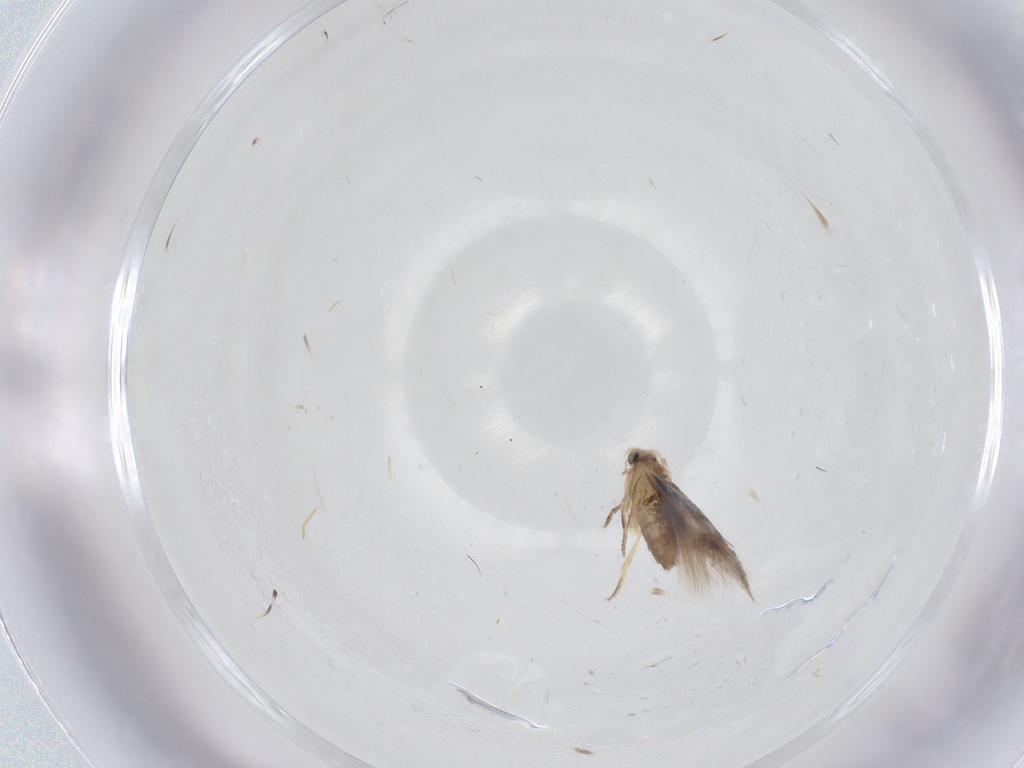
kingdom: Animalia
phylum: Arthropoda
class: Insecta
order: Lepidoptera
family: Nepticulidae
